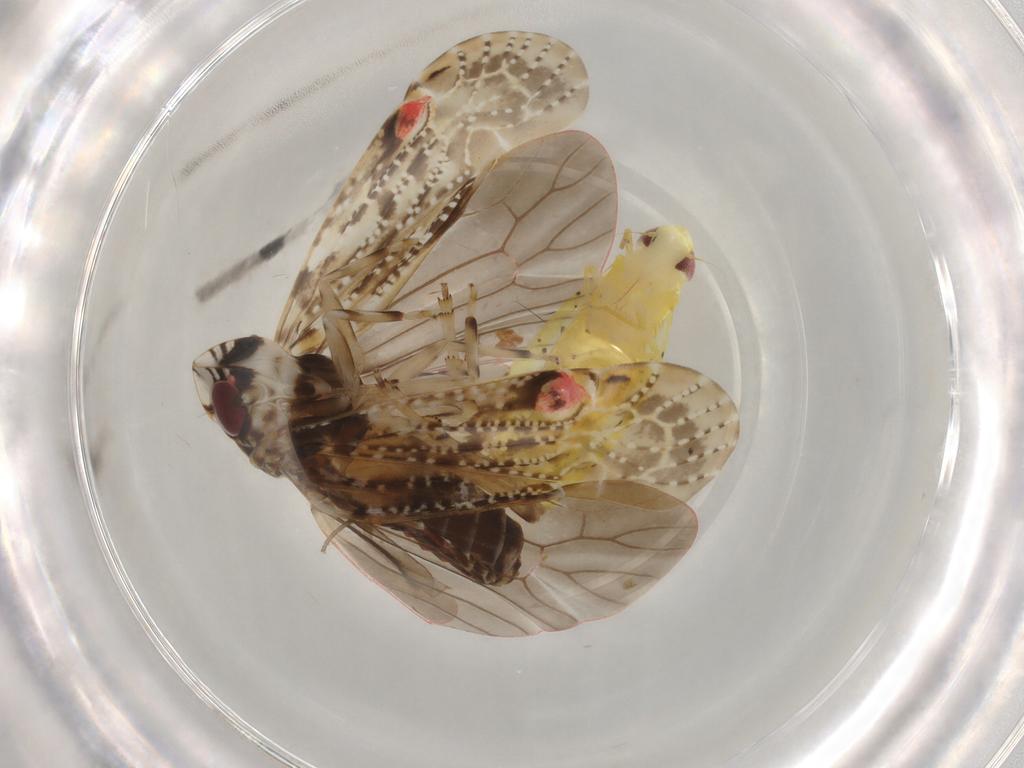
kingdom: Animalia
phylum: Arthropoda
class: Insecta
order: Hemiptera
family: Cicadellidae
